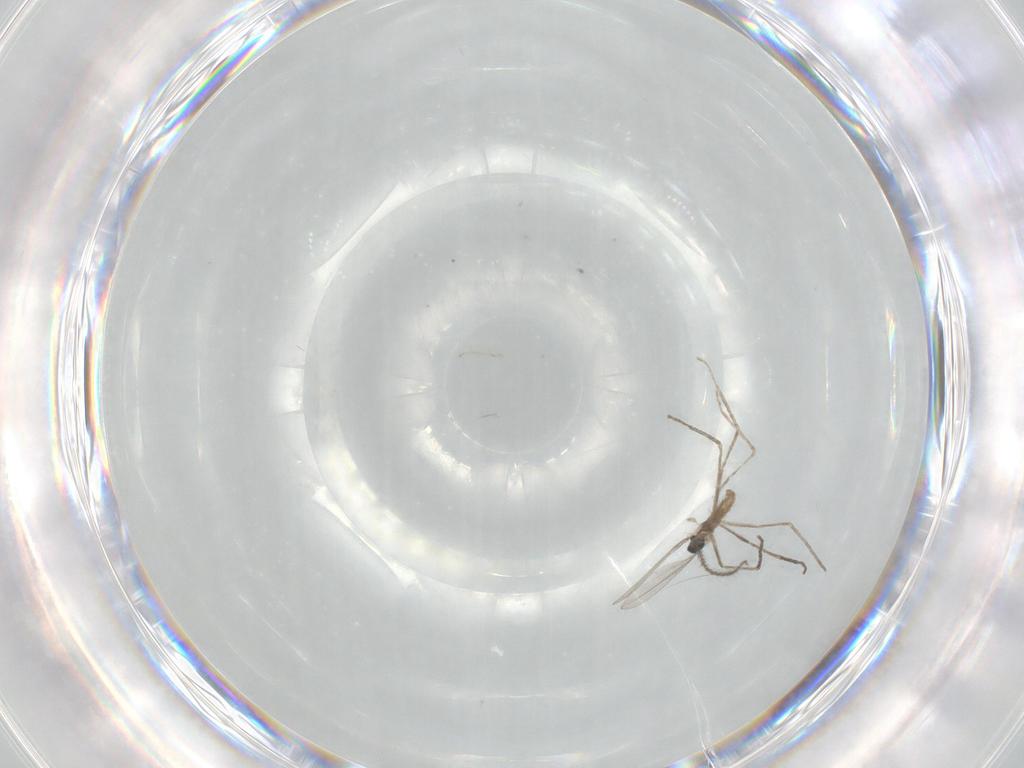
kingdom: Animalia
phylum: Arthropoda
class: Insecta
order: Diptera
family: Cecidomyiidae
